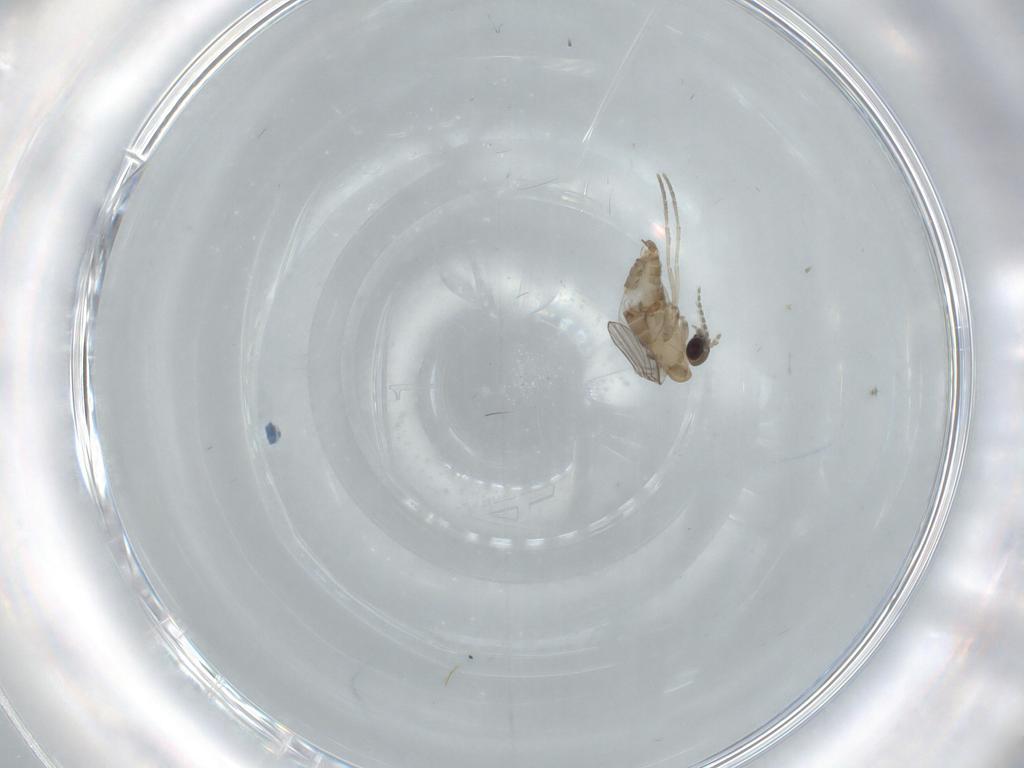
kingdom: Animalia
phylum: Arthropoda
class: Insecta
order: Diptera
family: Psychodidae
